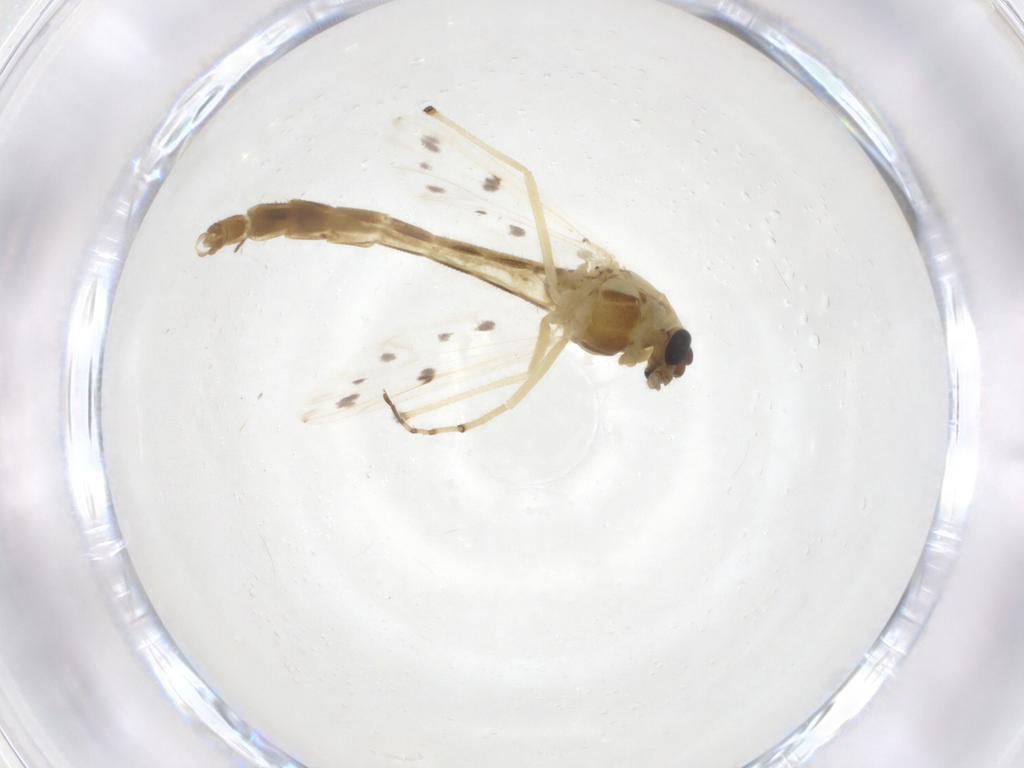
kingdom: Animalia
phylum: Arthropoda
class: Insecta
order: Diptera
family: Chironomidae
